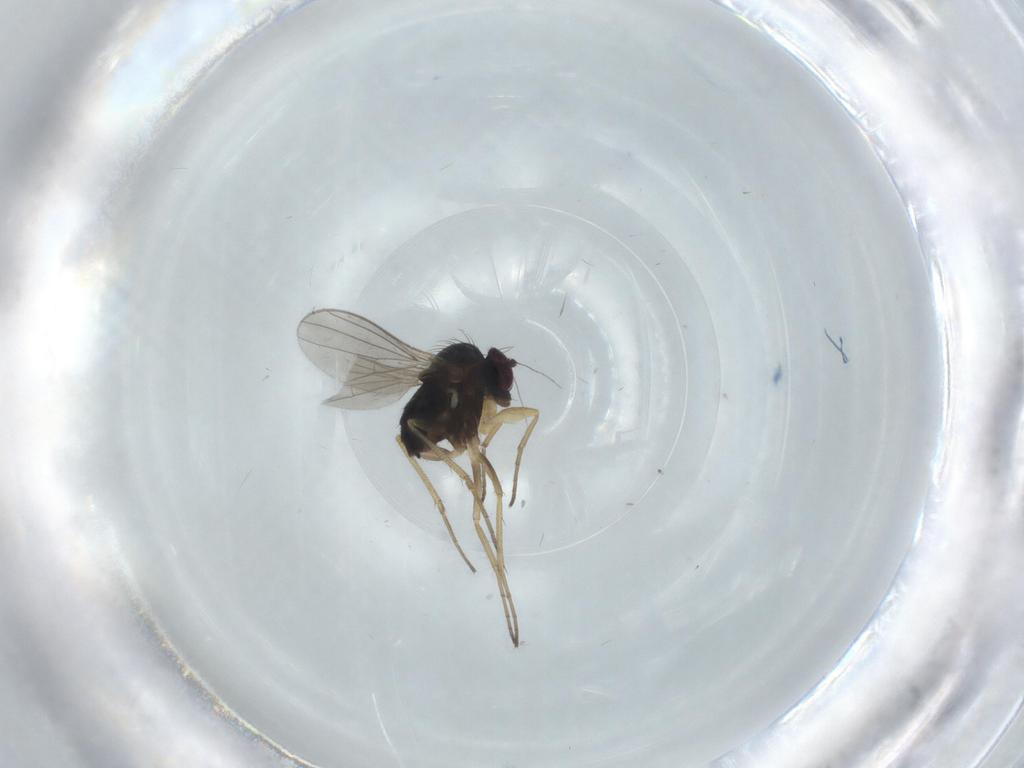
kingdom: Animalia
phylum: Arthropoda
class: Insecta
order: Diptera
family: Dolichopodidae
